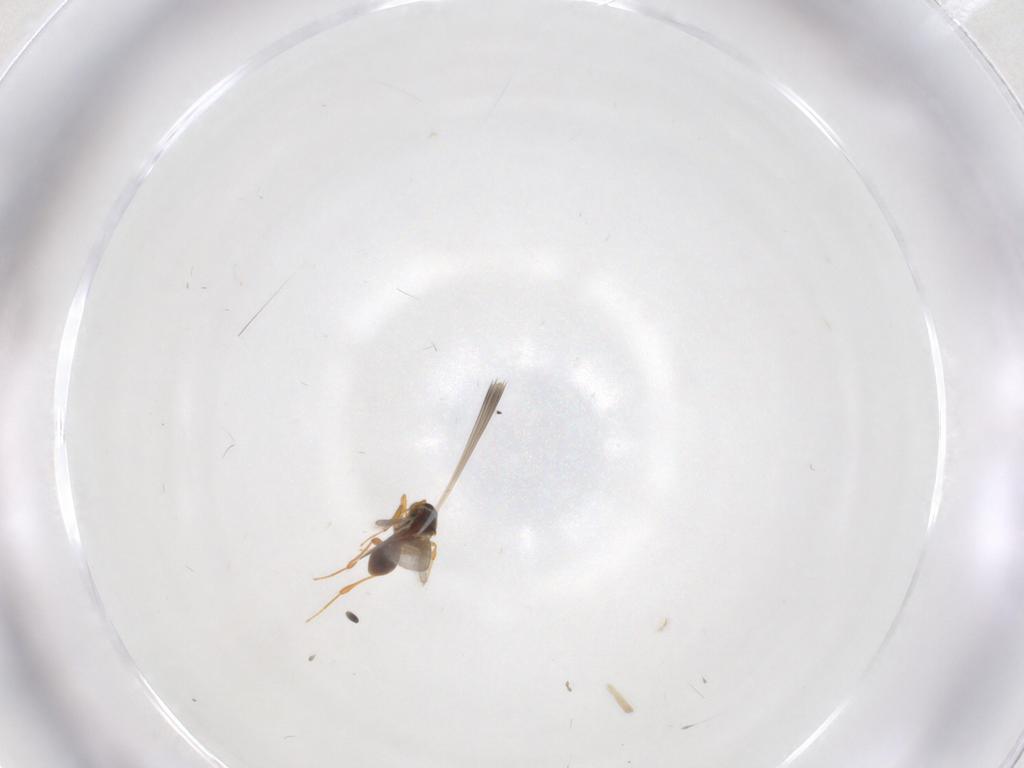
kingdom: Animalia
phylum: Arthropoda
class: Insecta
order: Hymenoptera
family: Platygastridae
